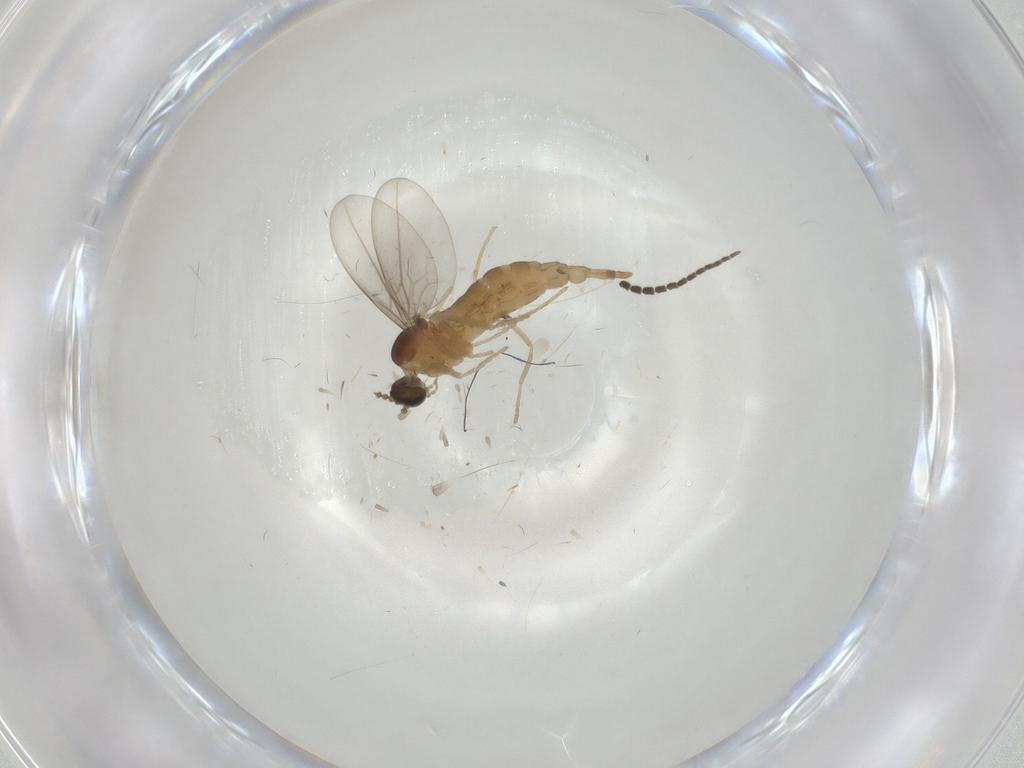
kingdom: Animalia
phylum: Arthropoda
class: Insecta
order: Diptera
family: Cecidomyiidae
